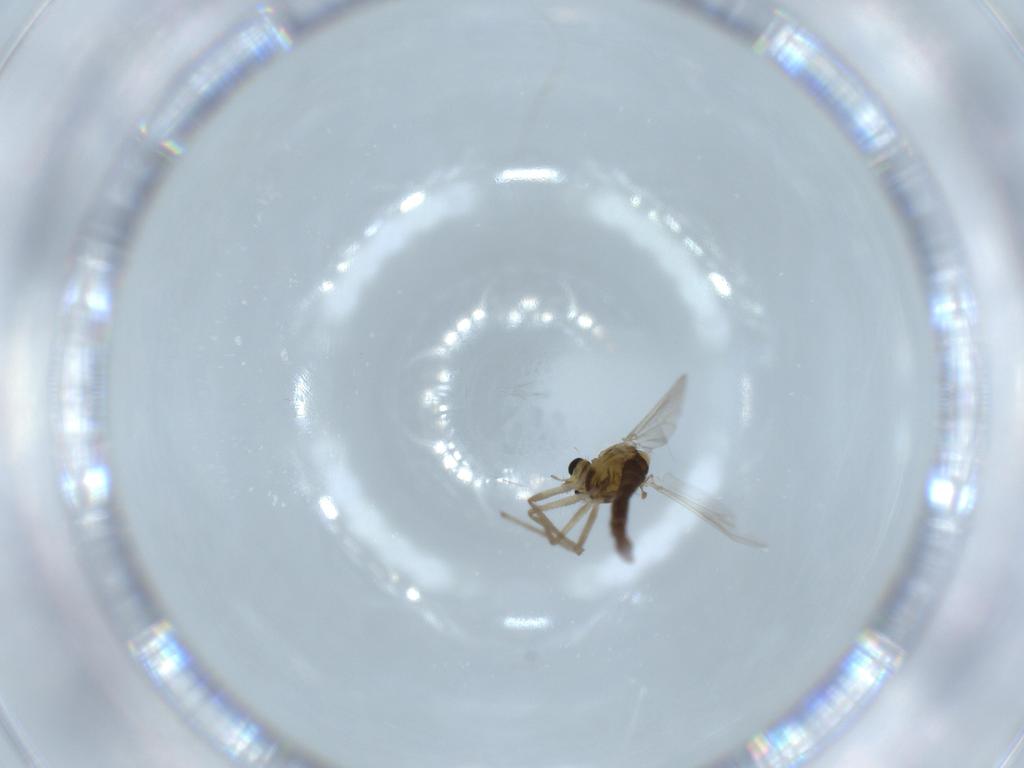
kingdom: Animalia
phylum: Arthropoda
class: Insecta
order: Diptera
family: Chironomidae
